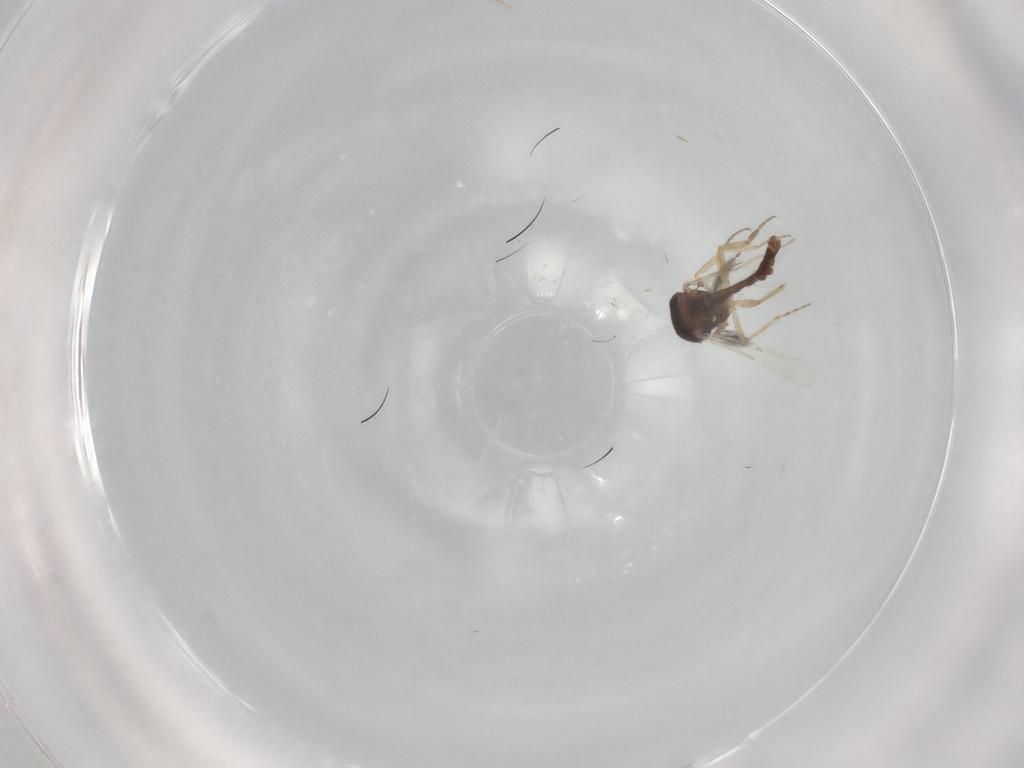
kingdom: Animalia
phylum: Arthropoda
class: Insecta
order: Diptera
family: Ceratopogonidae
